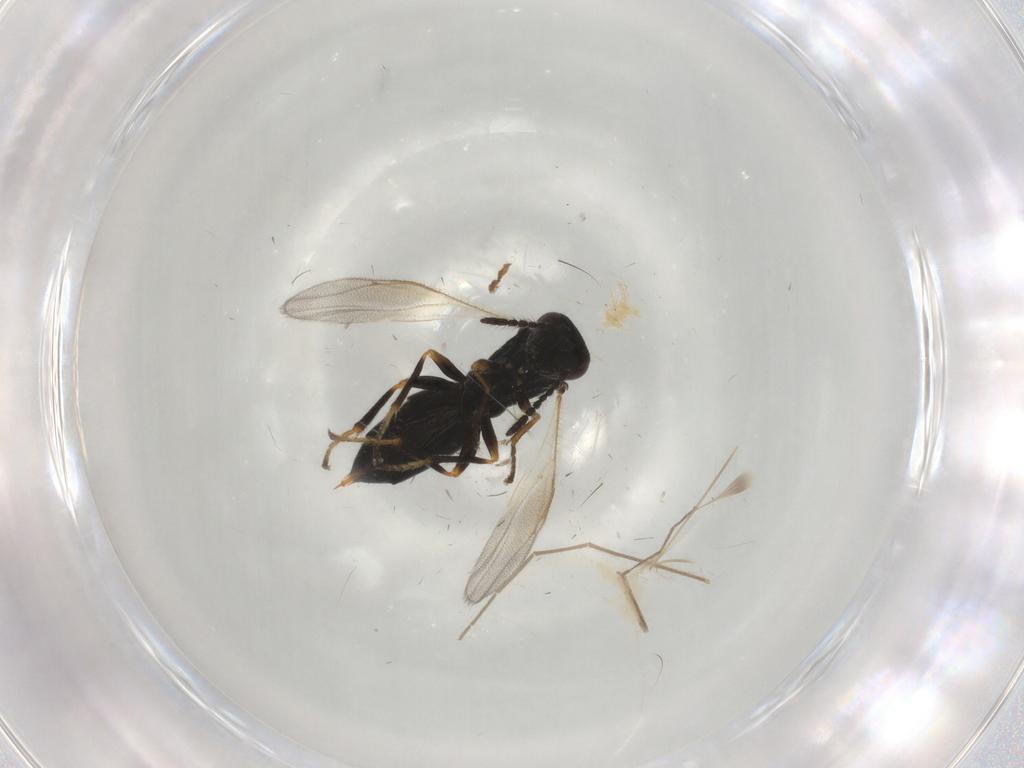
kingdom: Animalia
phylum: Arthropoda
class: Insecta
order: Hymenoptera
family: Eurytomidae
